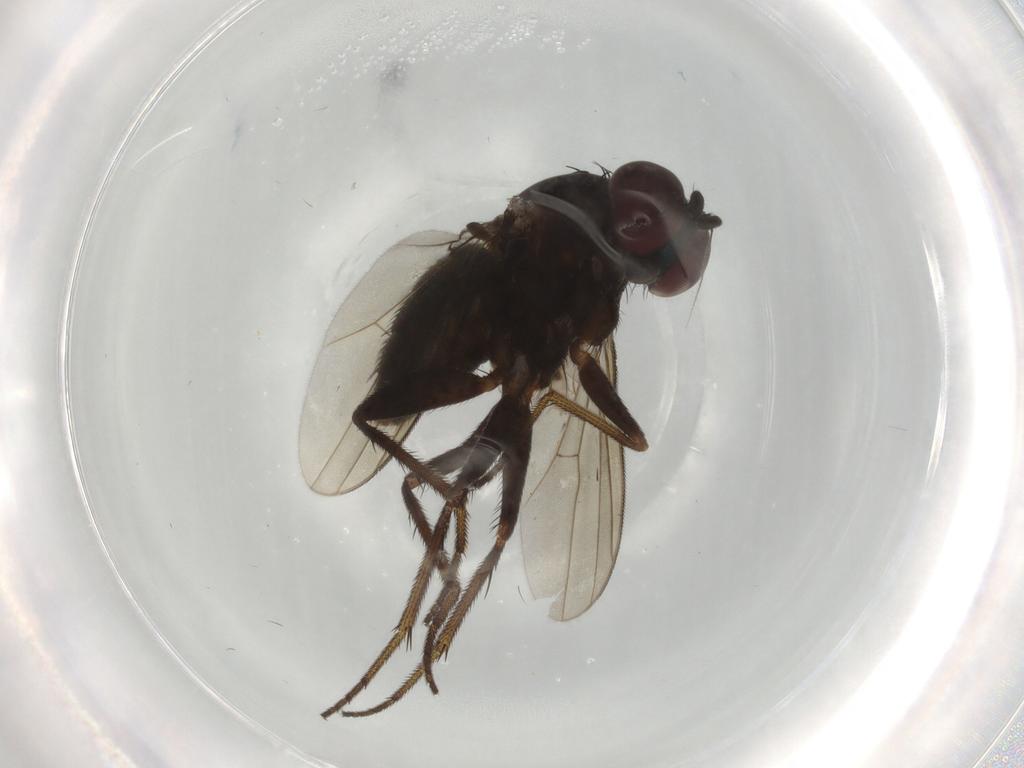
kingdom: Animalia
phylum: Arthropoda
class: Insecta
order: Diptera
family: Dolichopodidae
